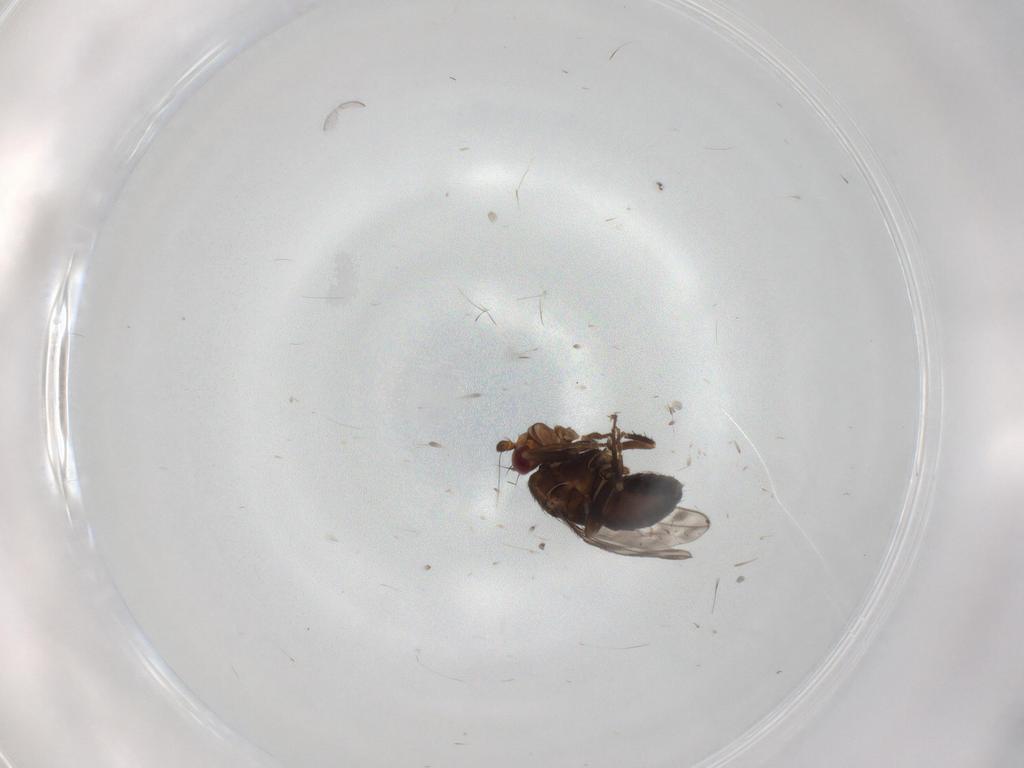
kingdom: Animalia
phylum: Arthropoda
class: Insecta
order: Diptera
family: Sphaeroceridae
